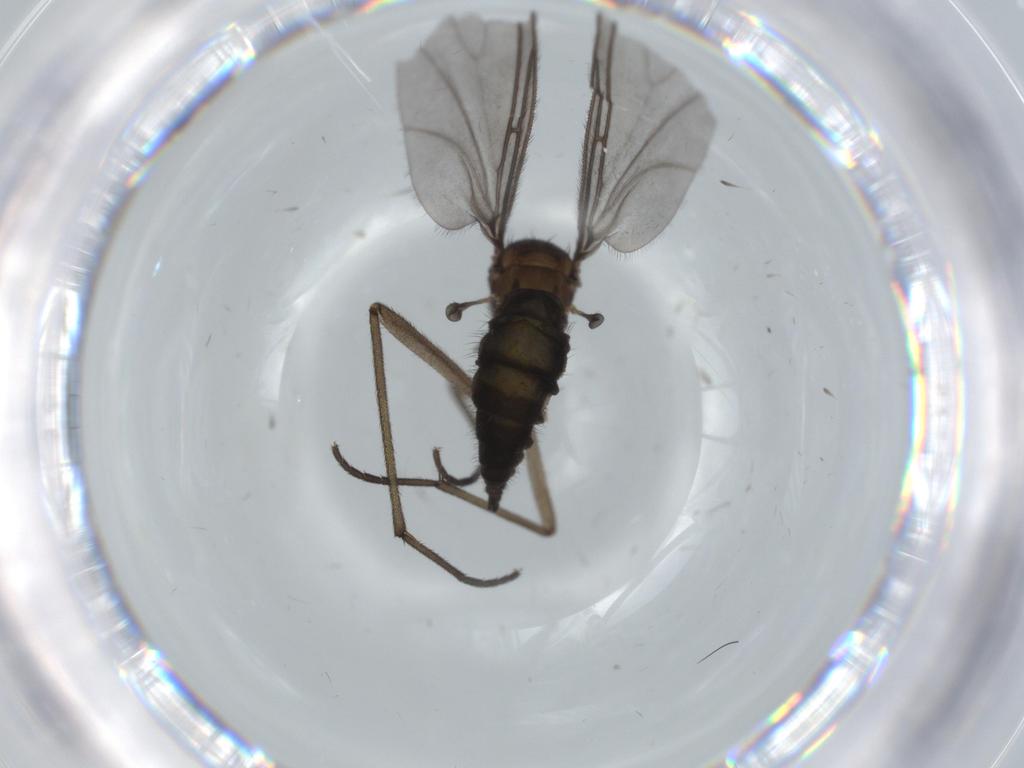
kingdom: Animalia
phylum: Arthropoda
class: Insecta
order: Diptera
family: Sciaridae
